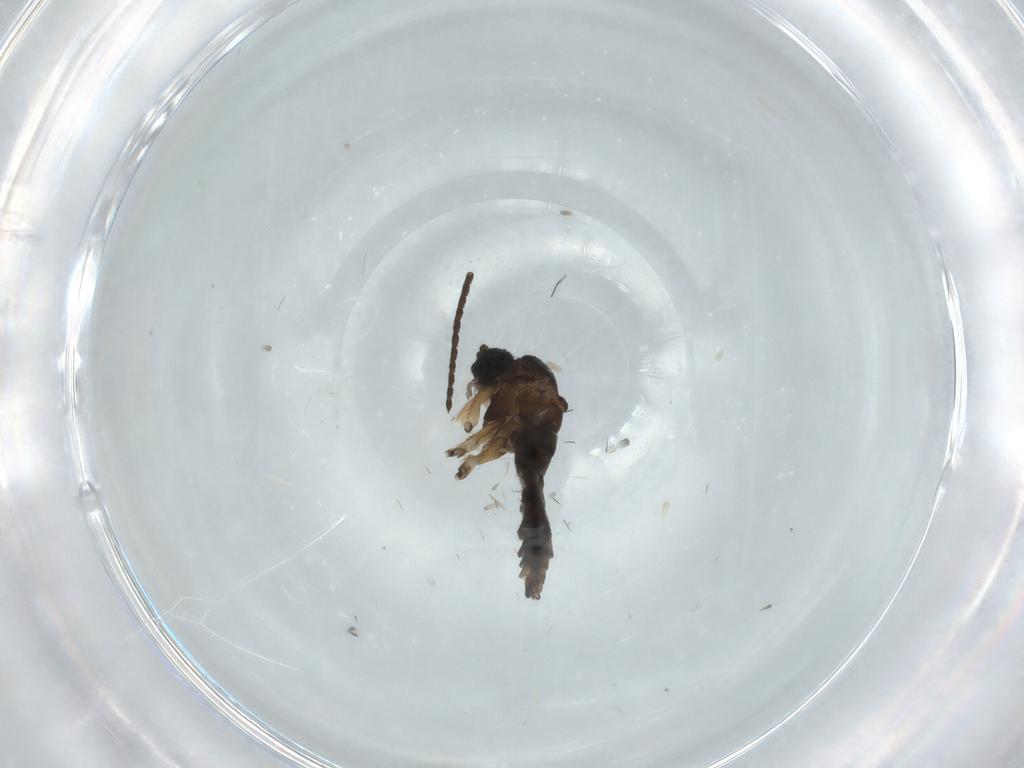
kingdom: Animalia
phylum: Arthropoda
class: Insecta
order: Diptera
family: Sciaridae
